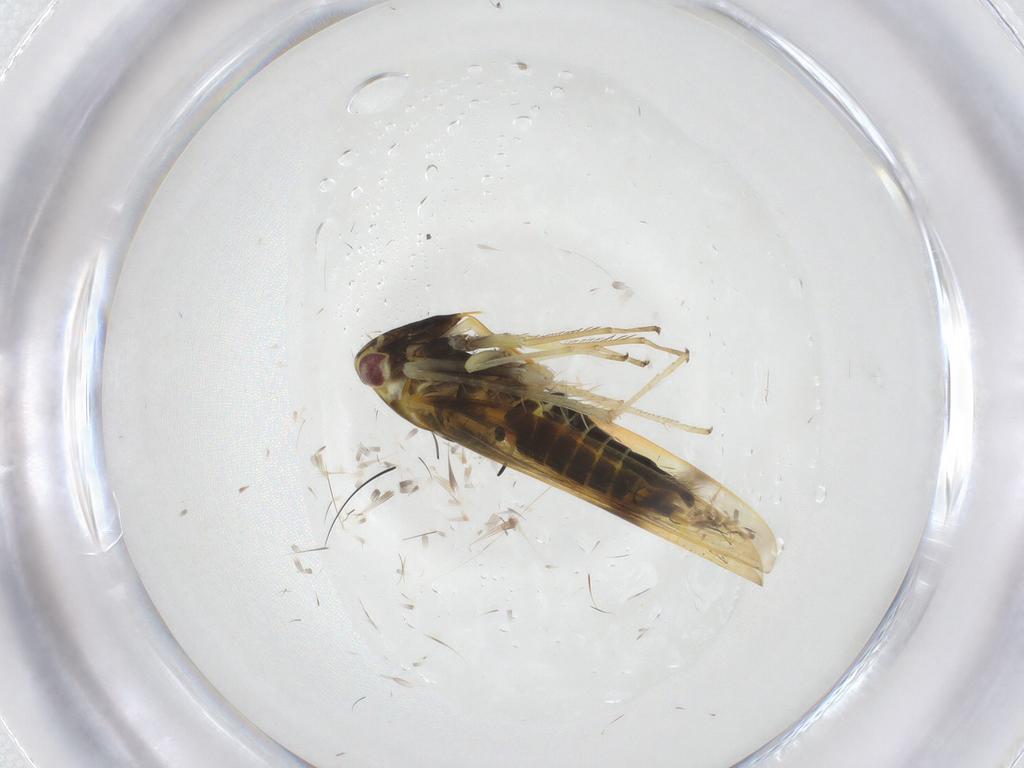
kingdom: Animalia
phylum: Arthropoda
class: Insecta
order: Hemiptera
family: Cicadellidae
